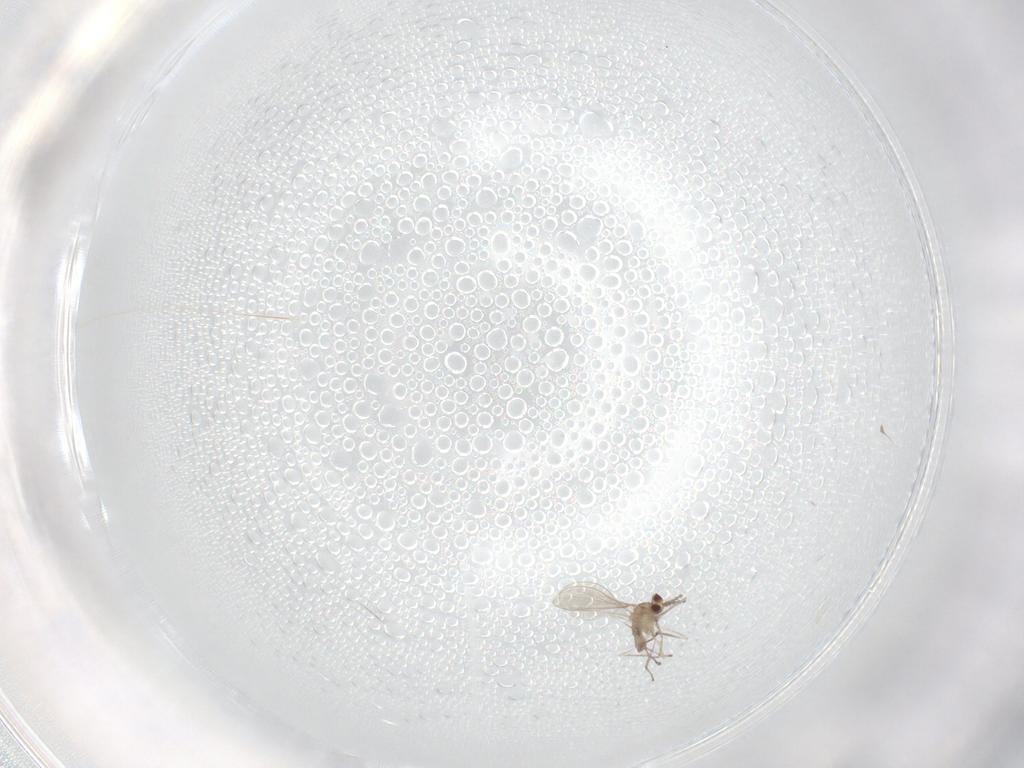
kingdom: Animalia
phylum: Arthropoda
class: Insecta
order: Diptera
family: Cecidomyiidae
